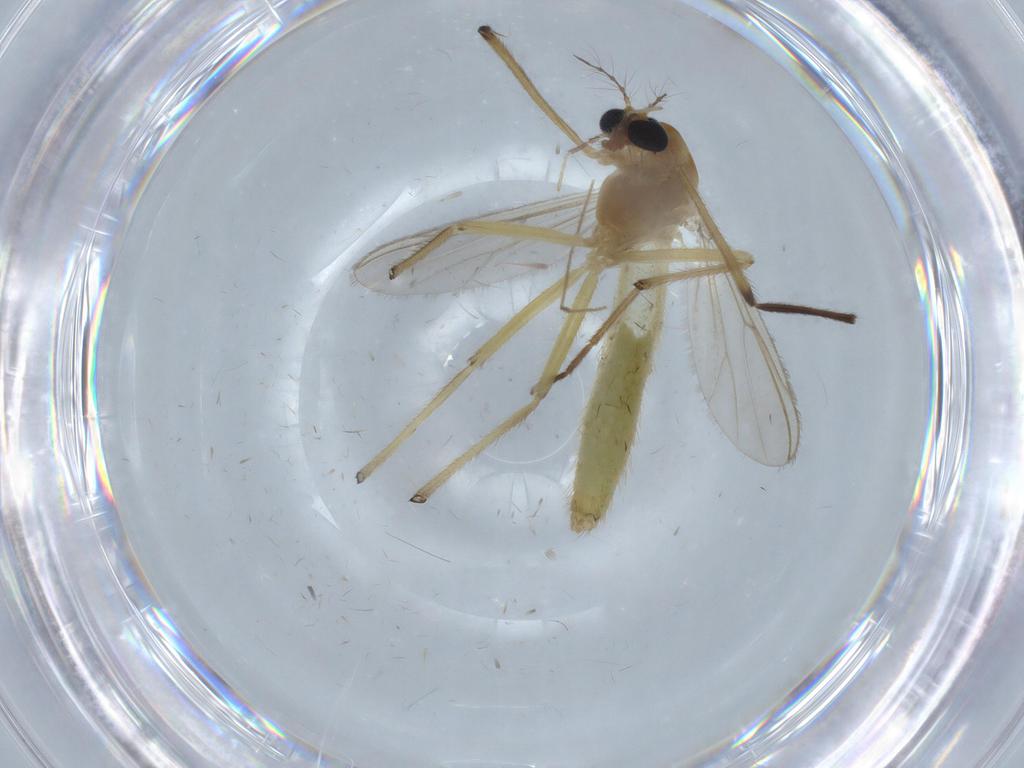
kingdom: Animalia
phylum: Arthropoda
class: Insecta
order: Diptera
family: Chironomidae
